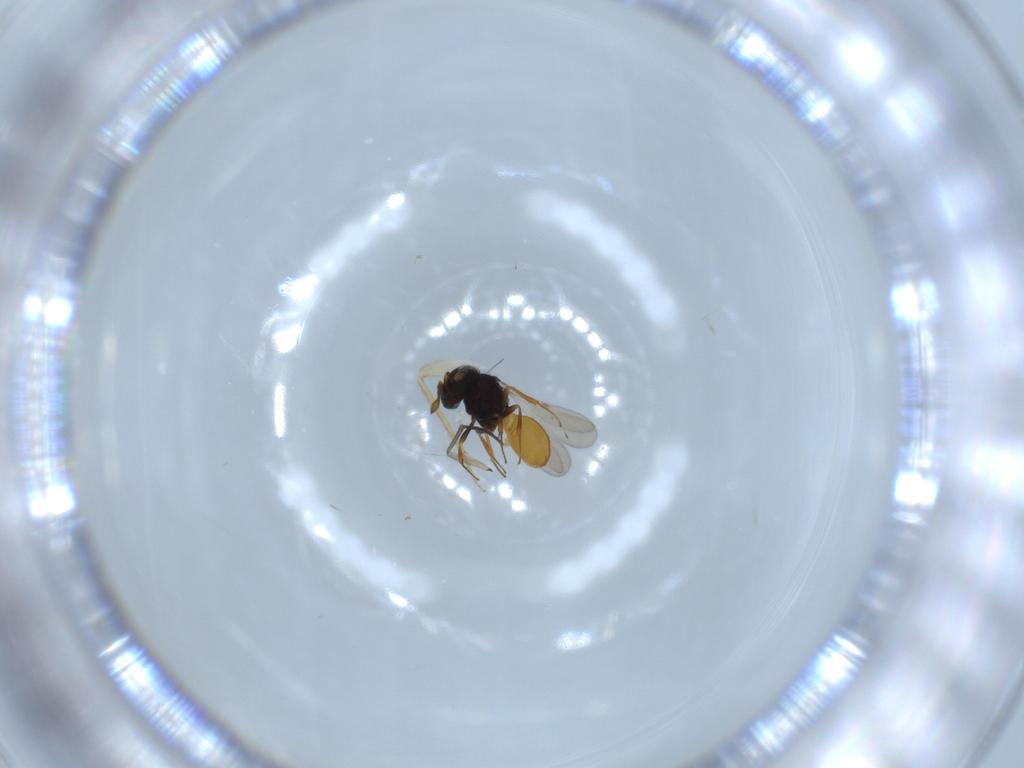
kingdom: Animalia
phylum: Arthropoda
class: Insecta
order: Hymenoptera
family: Scelionidae
